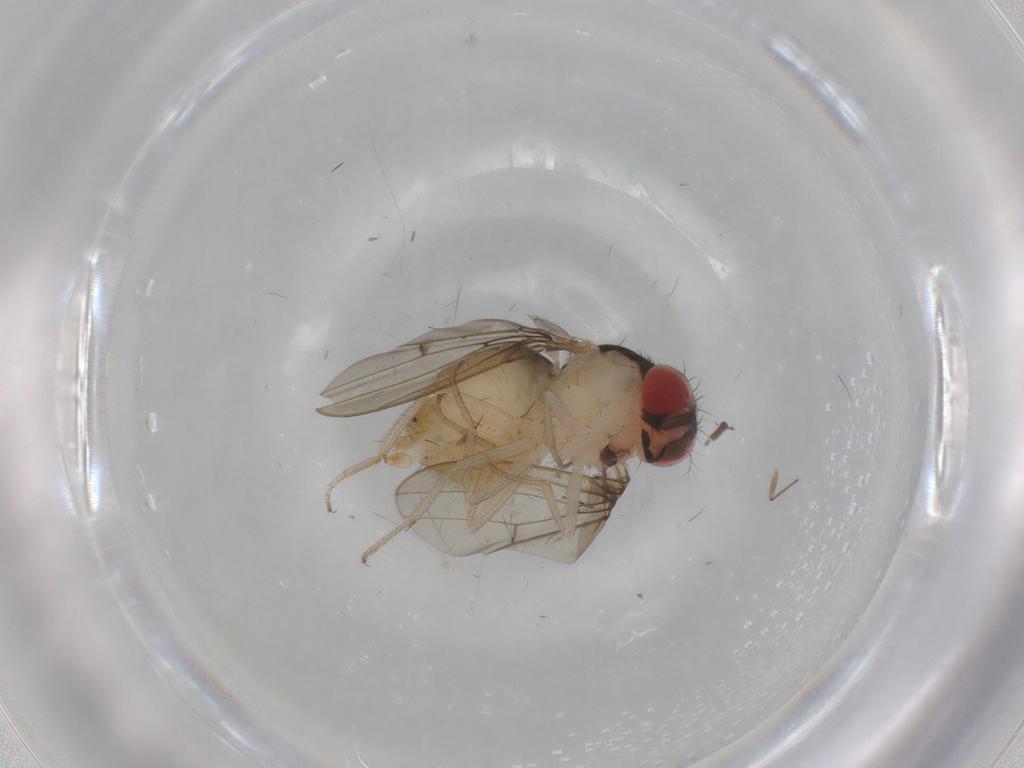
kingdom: Animalia
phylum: Arthropoda
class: Insecta
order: Diptera
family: Drosophilidae
